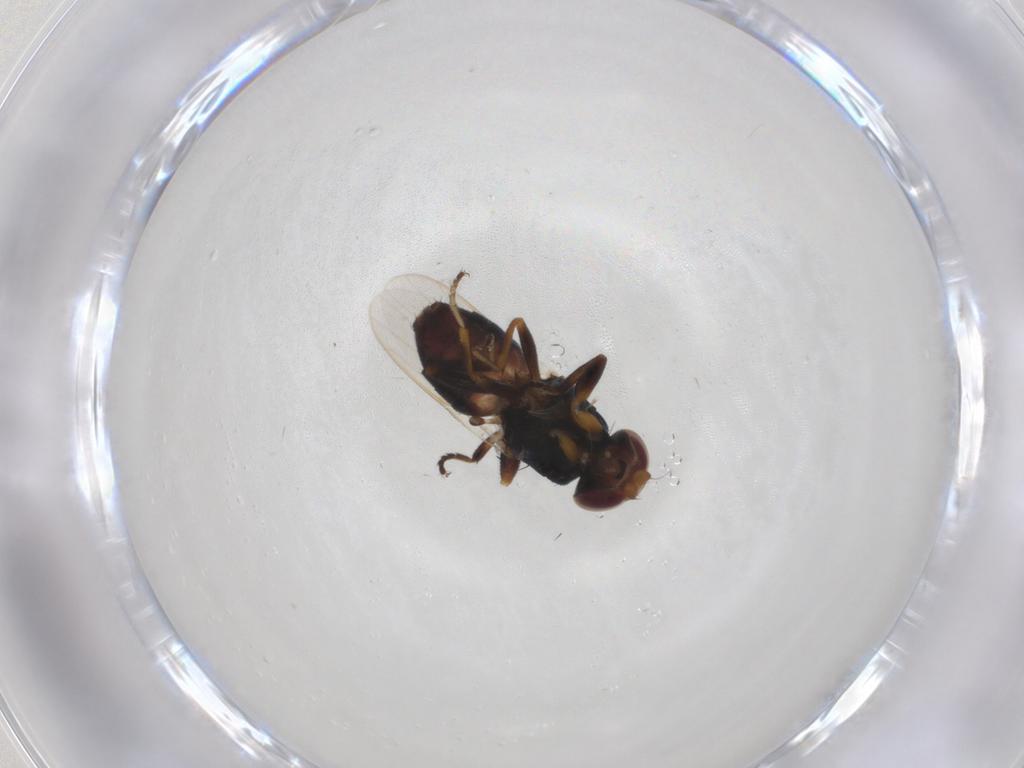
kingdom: Animalia
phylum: Arthropoda
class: Insecta
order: Diptera
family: Chloropidae
